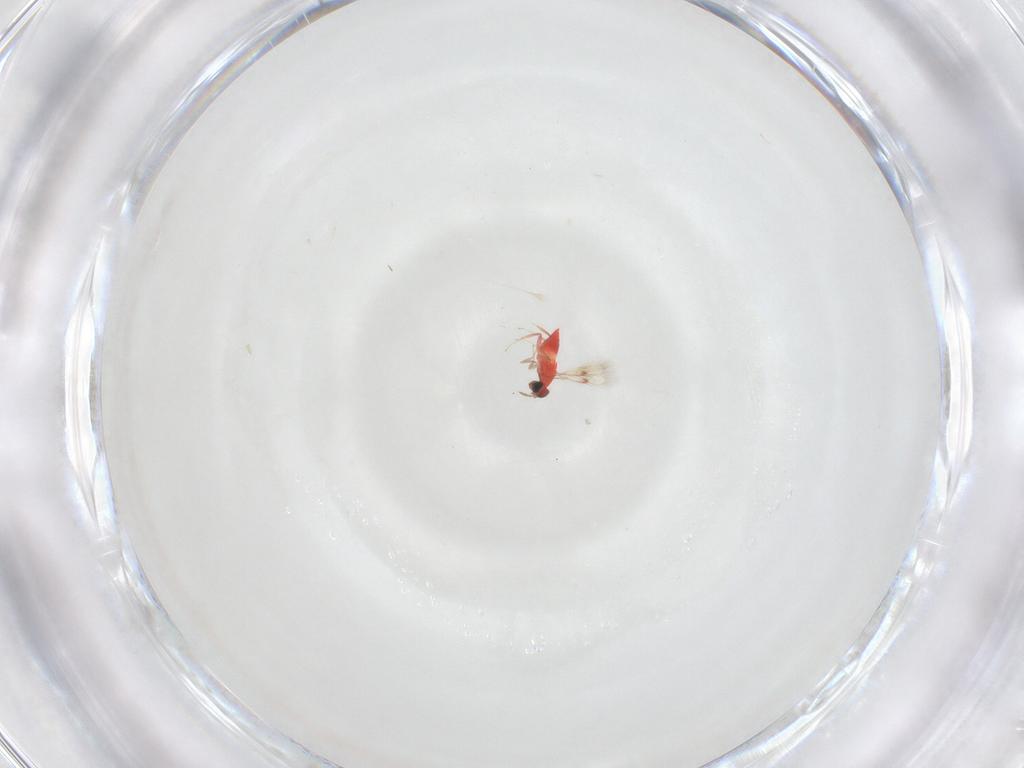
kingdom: Animalia
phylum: Arthropoda
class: Insecta
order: Hymenoptera
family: Trichogrammatidae
